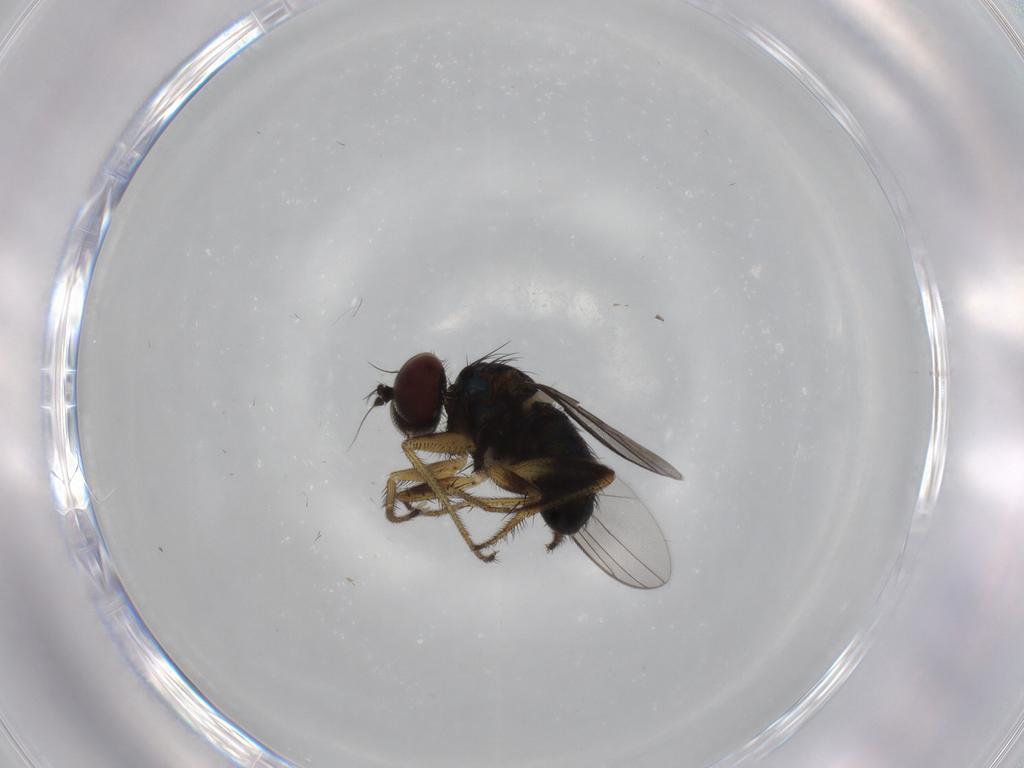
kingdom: Animalia
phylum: Arthropoda
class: Insecta
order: Diptera
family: Dolichopodidae
